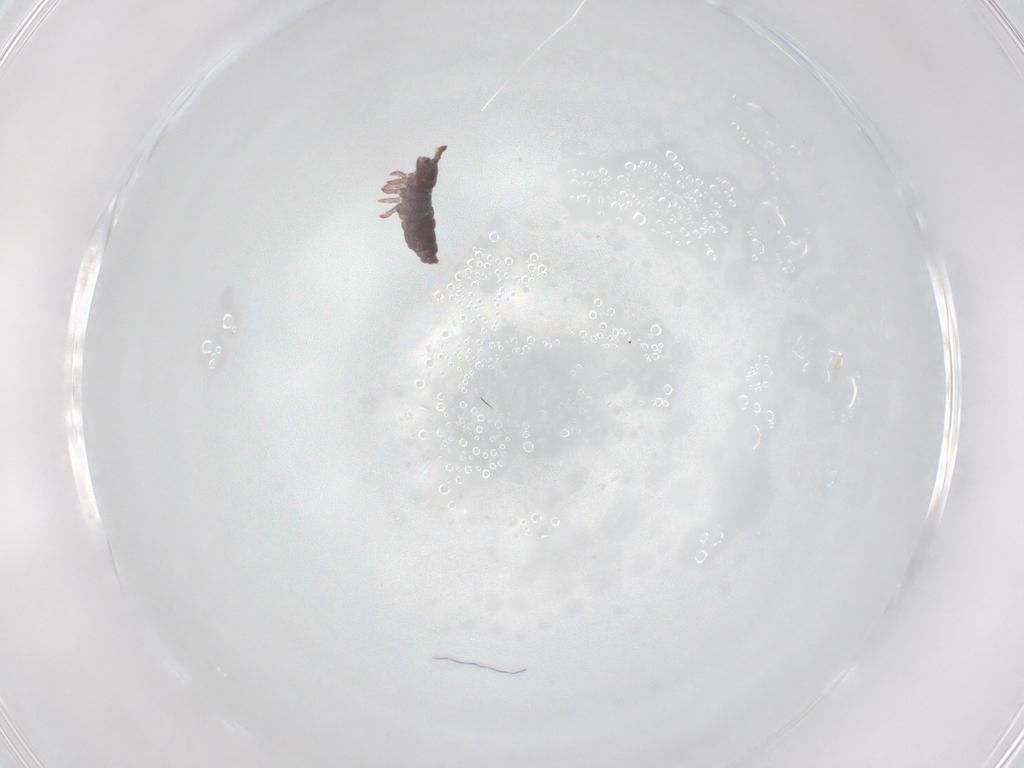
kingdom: Animalia
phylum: Arthropoda
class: Collembola
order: Poduromorpha
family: Hypogastruridae
